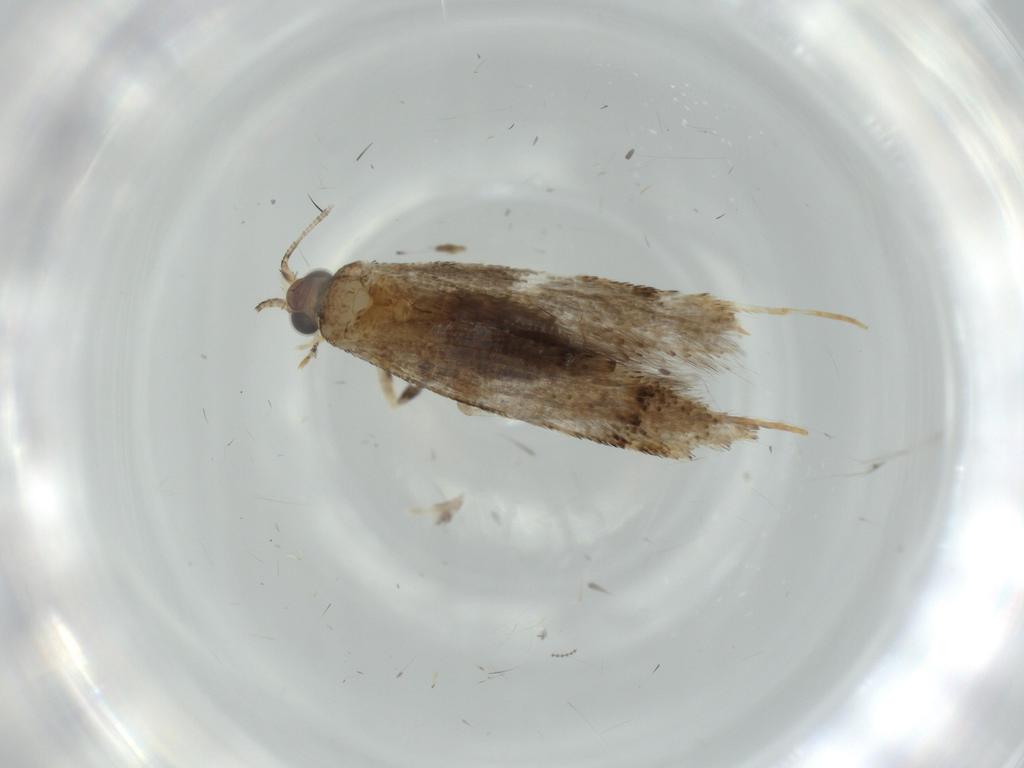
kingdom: Animalia
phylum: Arthropoda
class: Insecta
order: Lepidoptera
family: Tineidae
